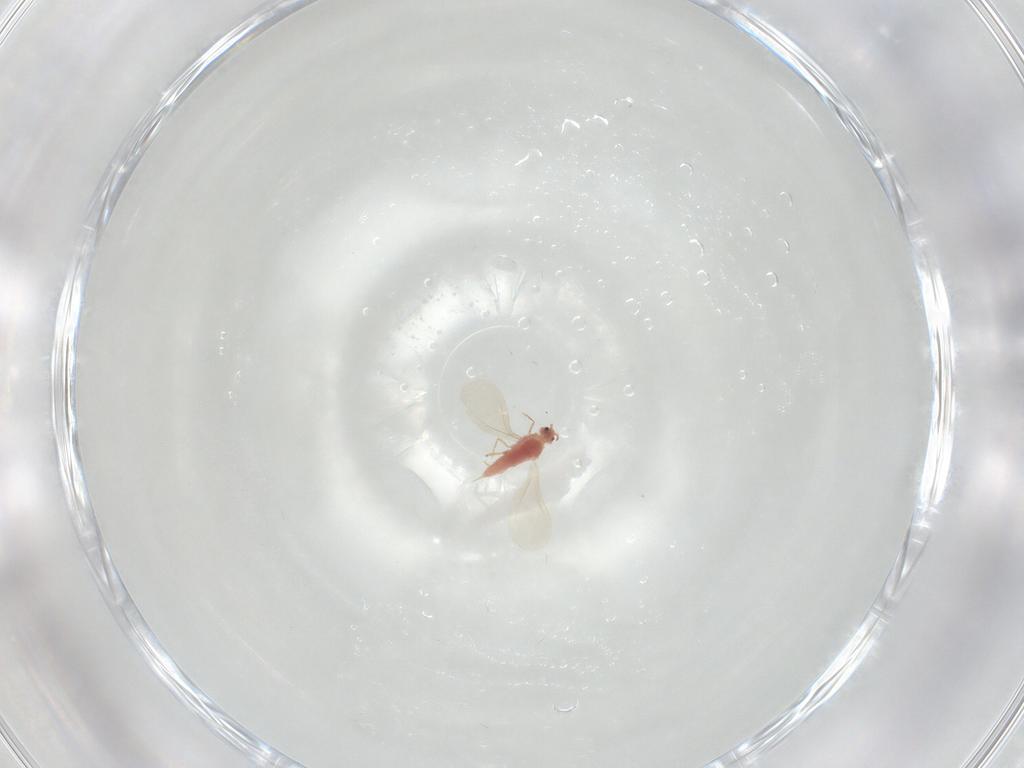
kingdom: Animalia
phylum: Arthropoda
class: Insecta
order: Hemiptera
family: Coccoidea_incertae_sedis
